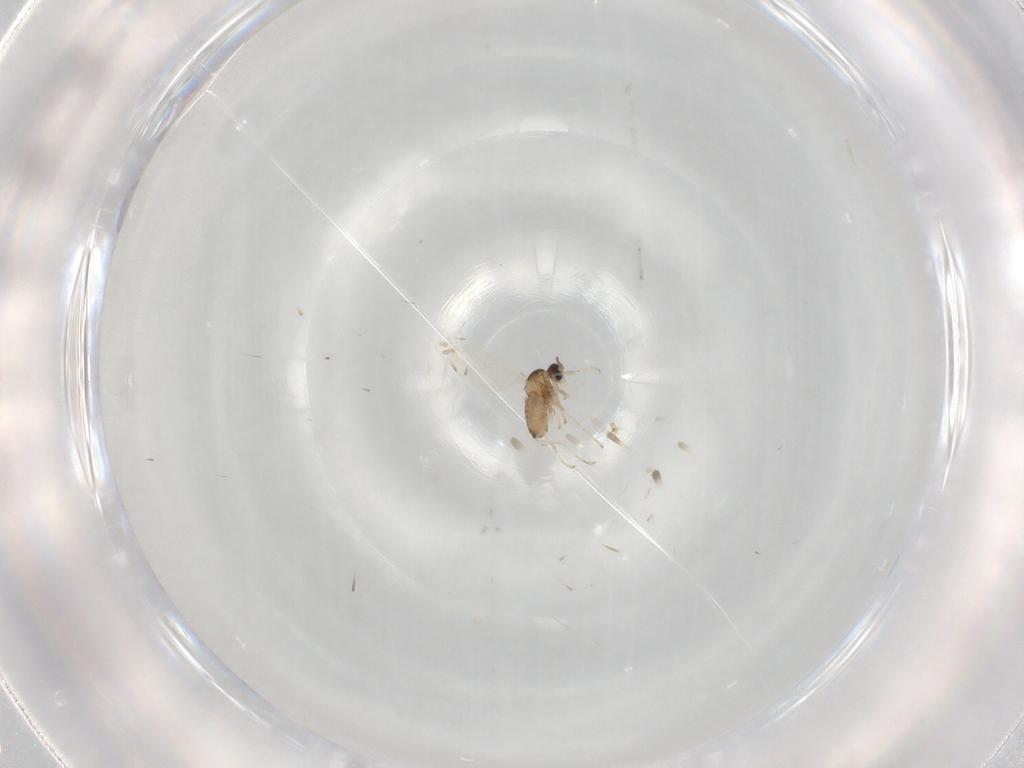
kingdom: Animalia
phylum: Arthropoda
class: Insecta
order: Diptera
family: Cecidomyiidae
